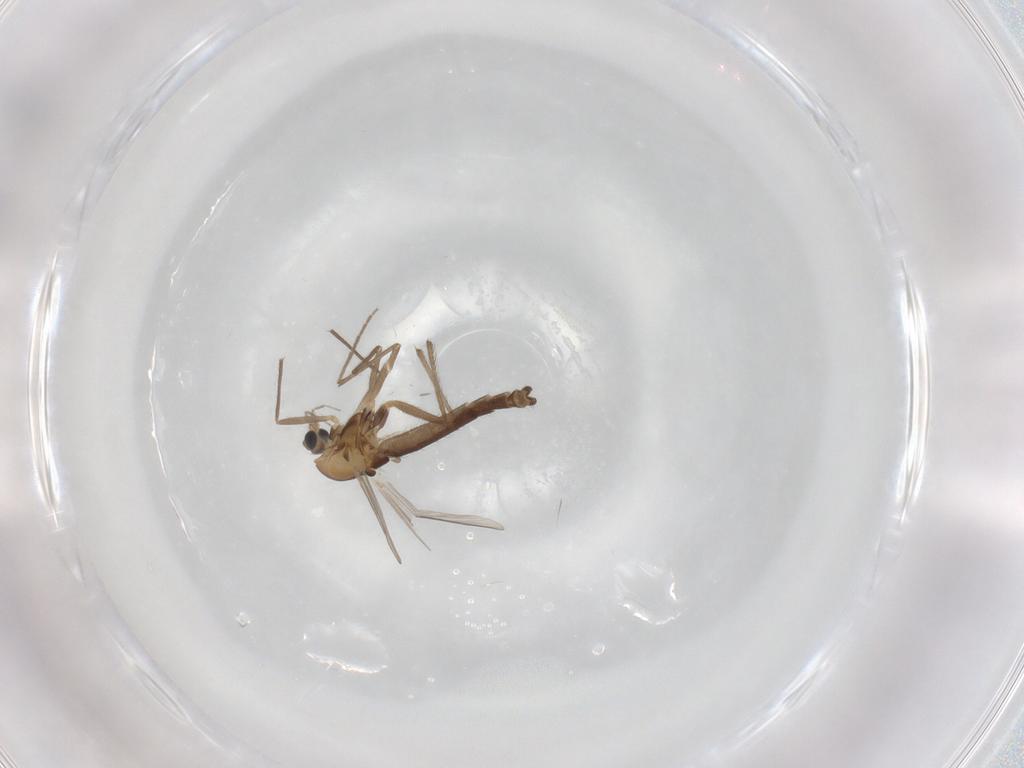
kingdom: Animalia
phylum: Arthropoda
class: Insecta
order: Diptera
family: Chironomidae
